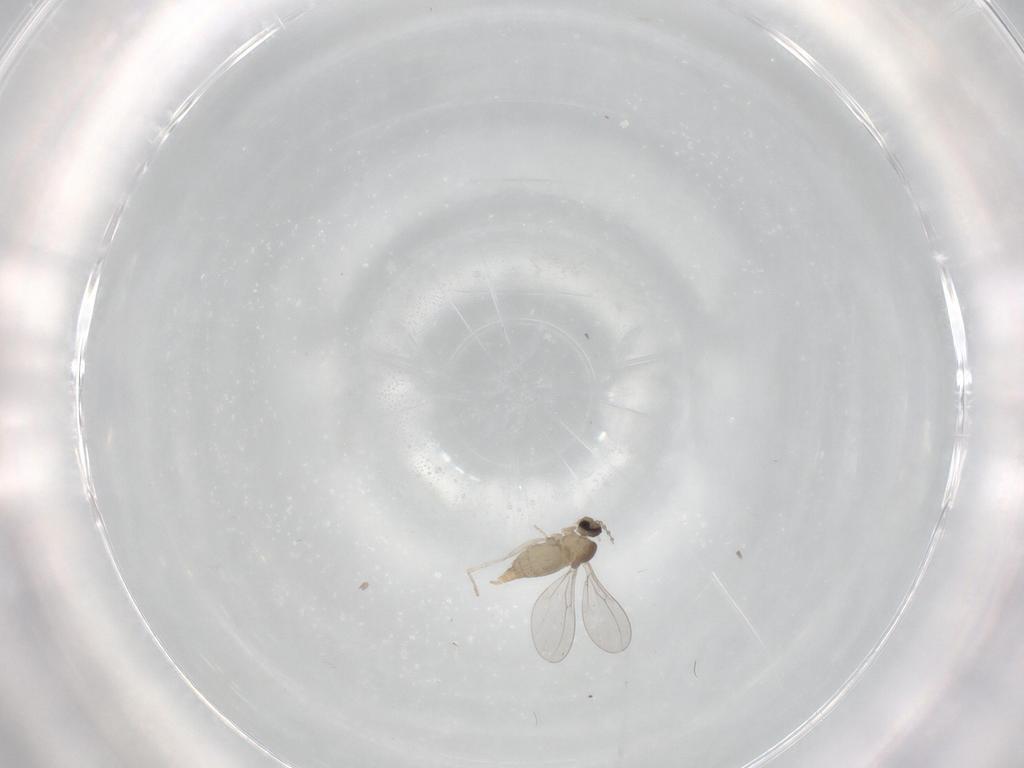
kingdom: Animalia
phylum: Arthropoda
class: Insecta
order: Diptera
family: Cecidomyiidae
